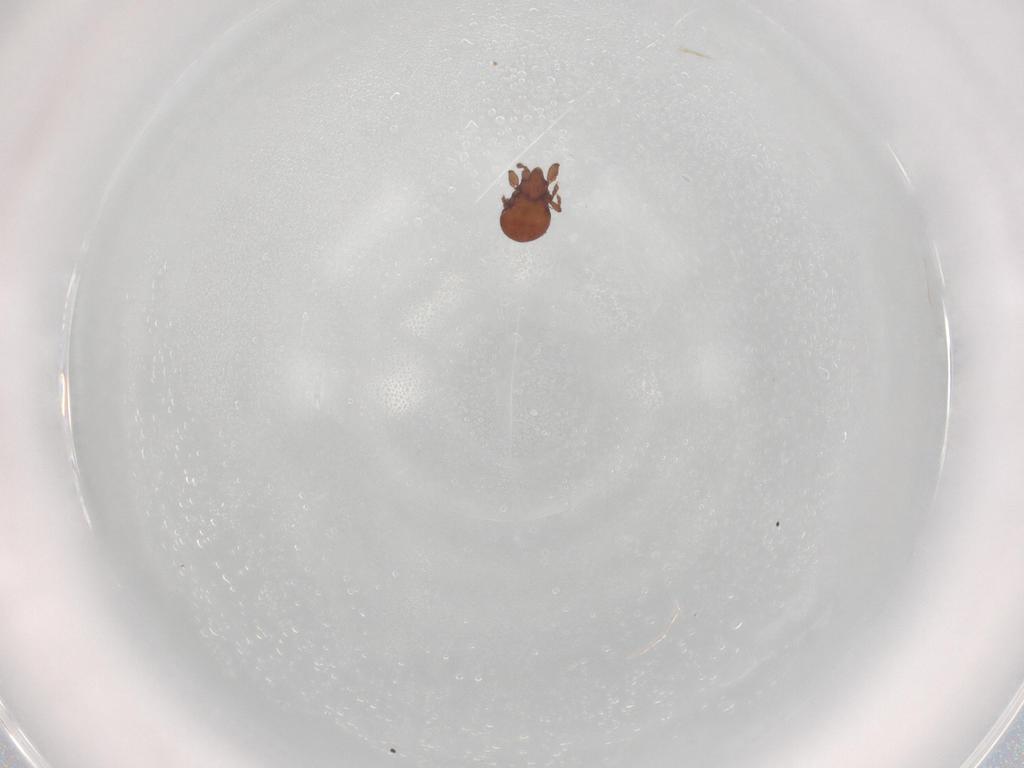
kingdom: Animalia
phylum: Arthropoda
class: Arachnida
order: Sarcoptiformes
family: Eremaeidae
